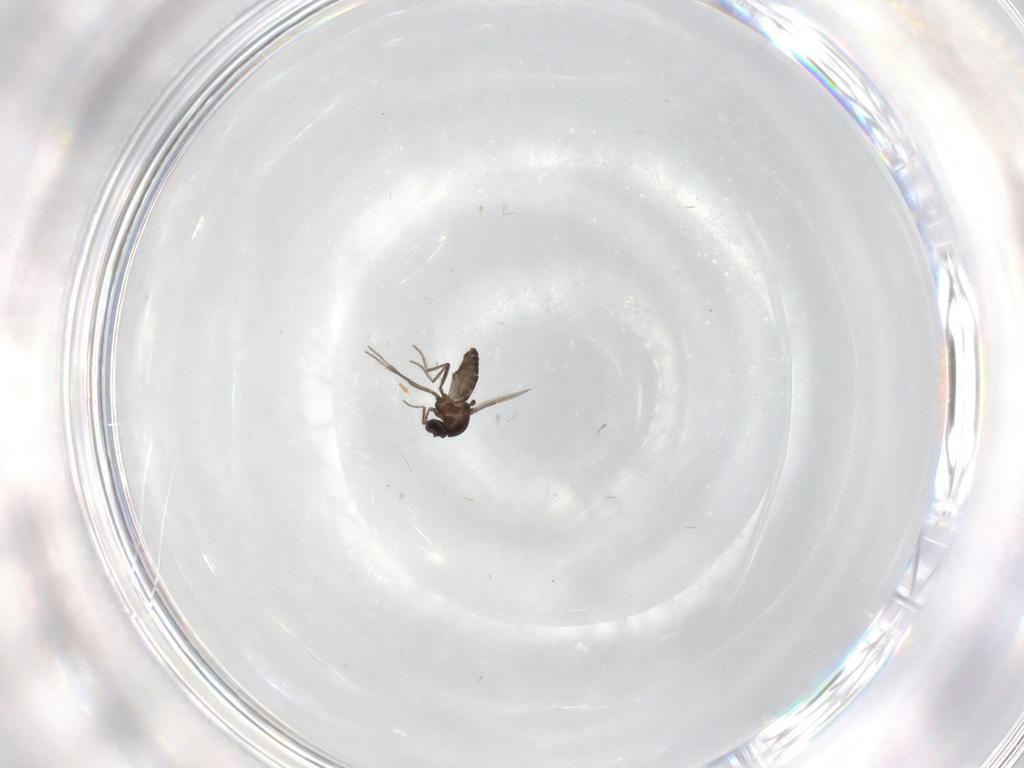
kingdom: Animalia
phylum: Arthropoda
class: Insecta
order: Diptera
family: Ceratopogonidae
